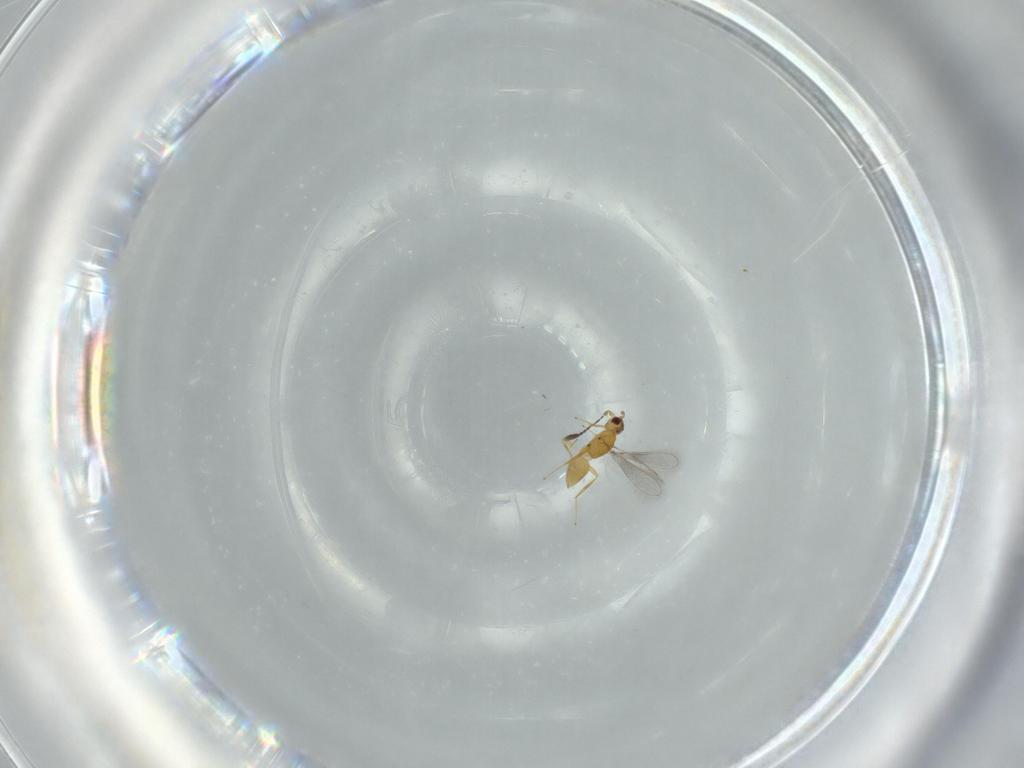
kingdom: Animalia
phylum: Arthropoda
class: Insecta
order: Hymenoptera
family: Mymaridae
